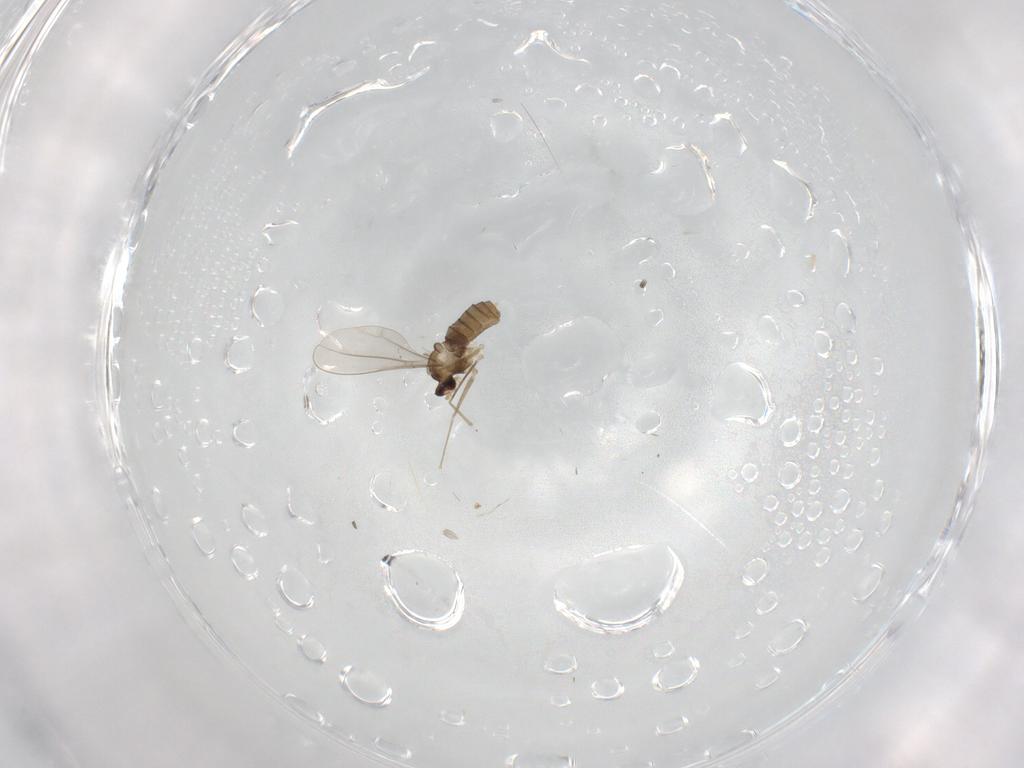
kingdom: Animalia
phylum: Arthropoda
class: Insecta
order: Diptera
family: Cecidomyiidae
